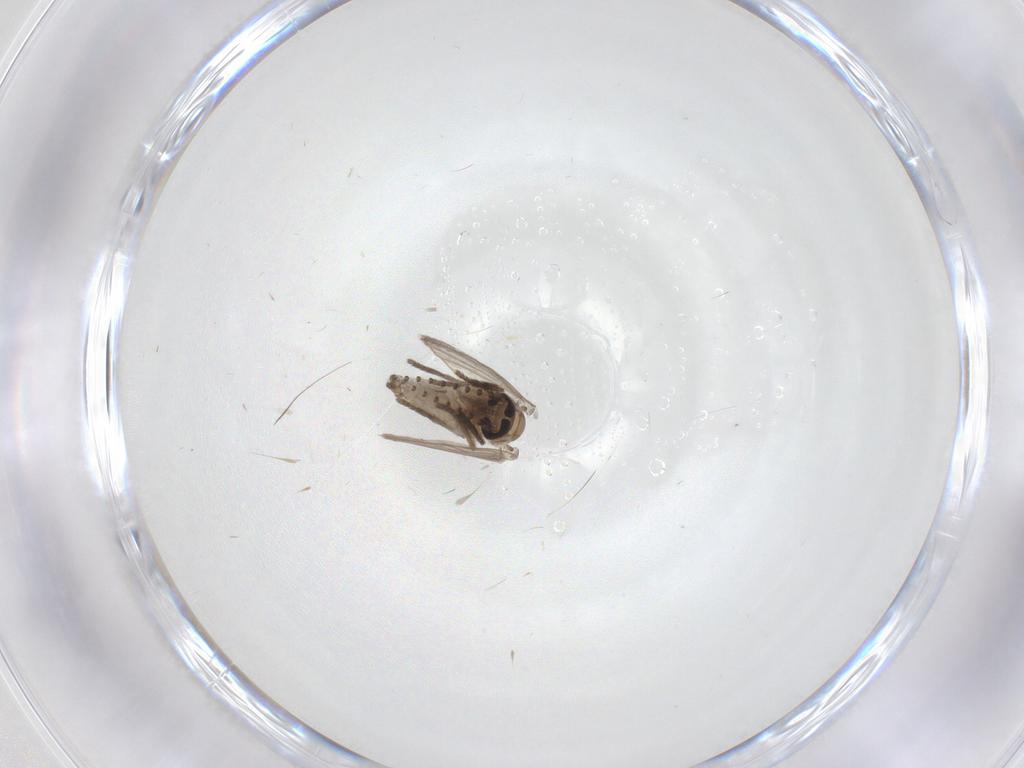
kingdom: Animalia
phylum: Arthropoda
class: Insecta
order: Diptera
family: Psychodidae
